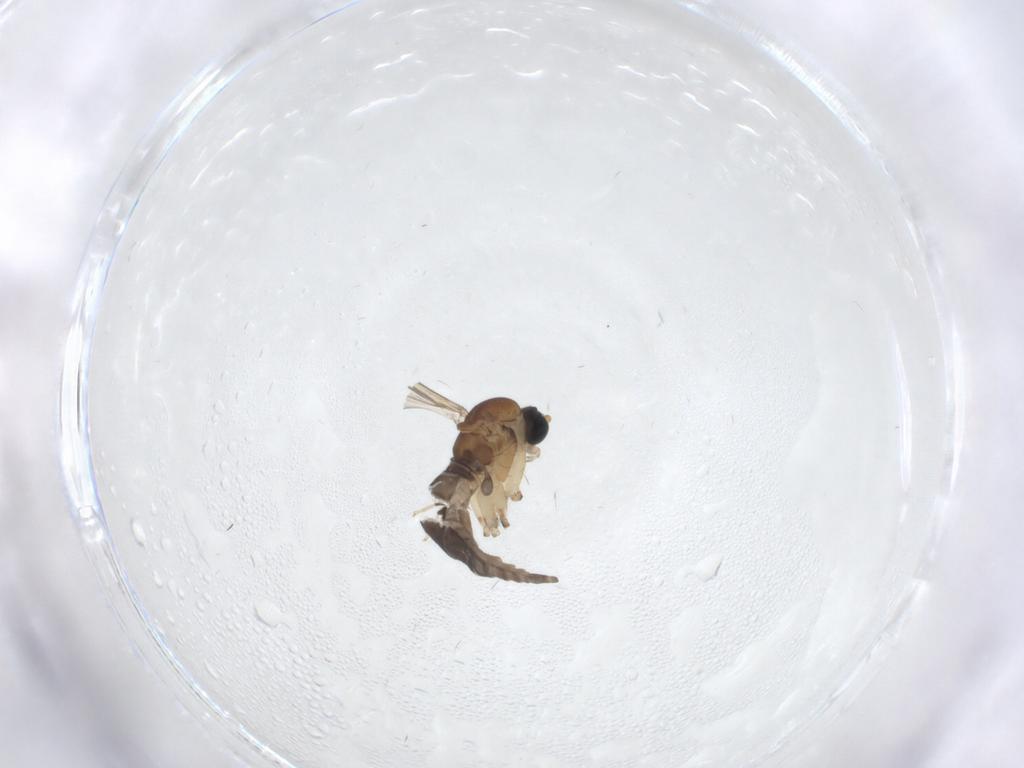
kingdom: Animalia
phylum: Arthropoda
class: Insecta
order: Diptera
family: Sciaridae
